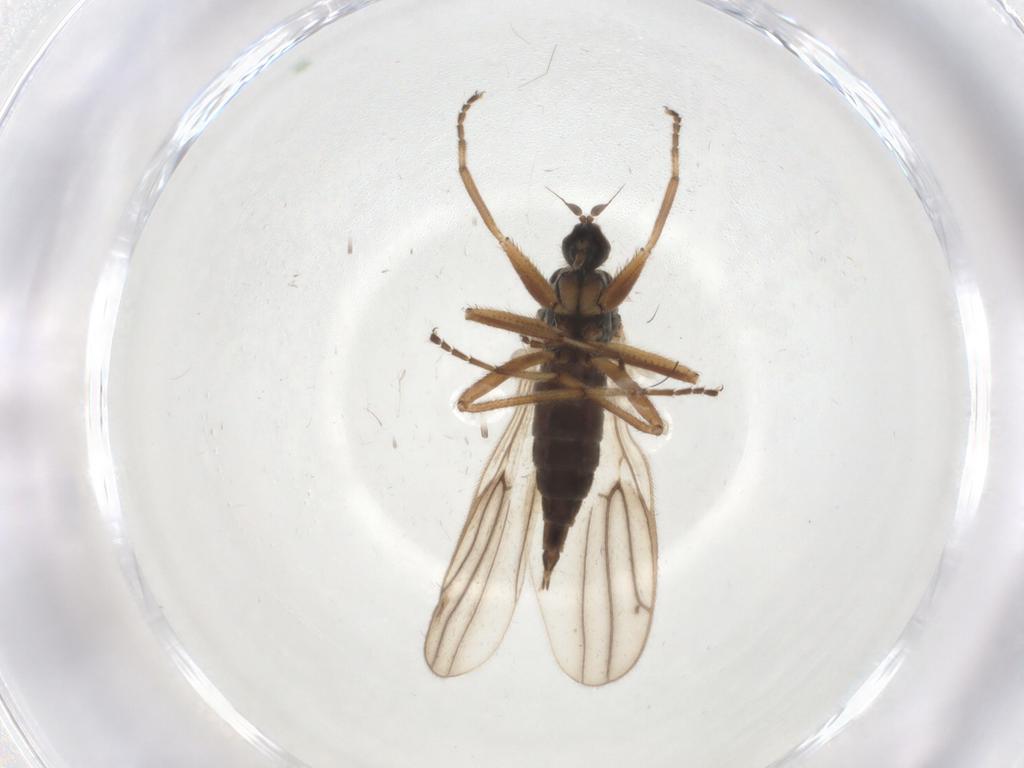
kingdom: Animalia
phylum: Arthropoda
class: Insecta
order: Diptera
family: Hybotidae
